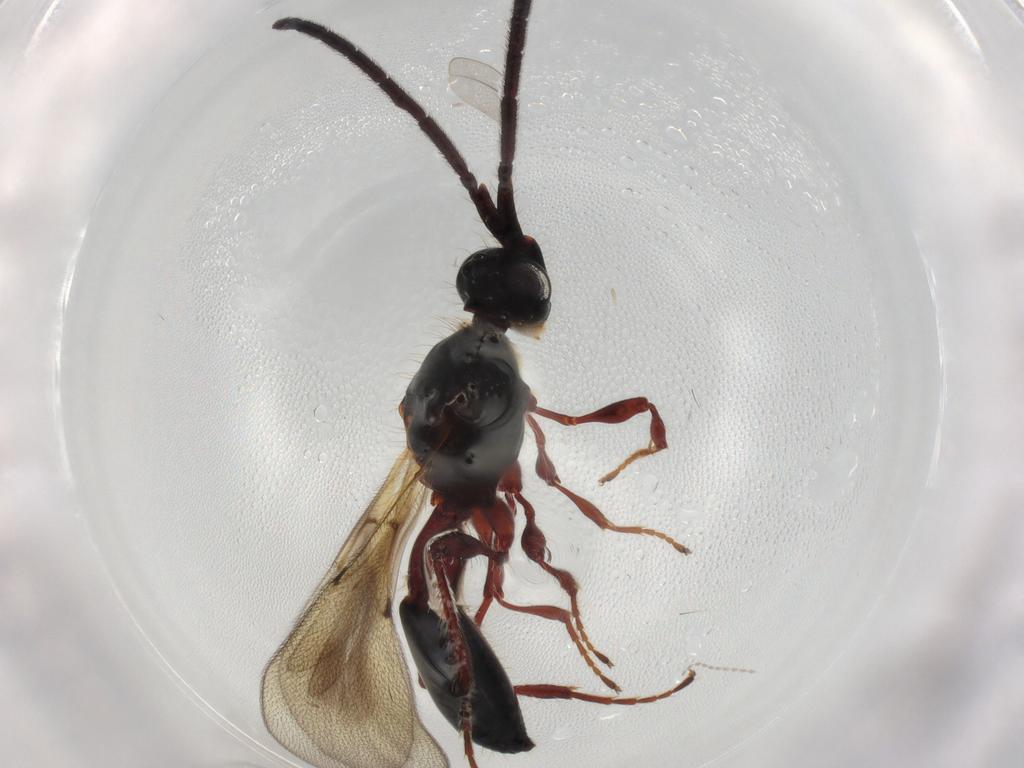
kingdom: Animalia
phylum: Arthropoda
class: Insecta
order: Hymenoptera
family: Diapriidae
